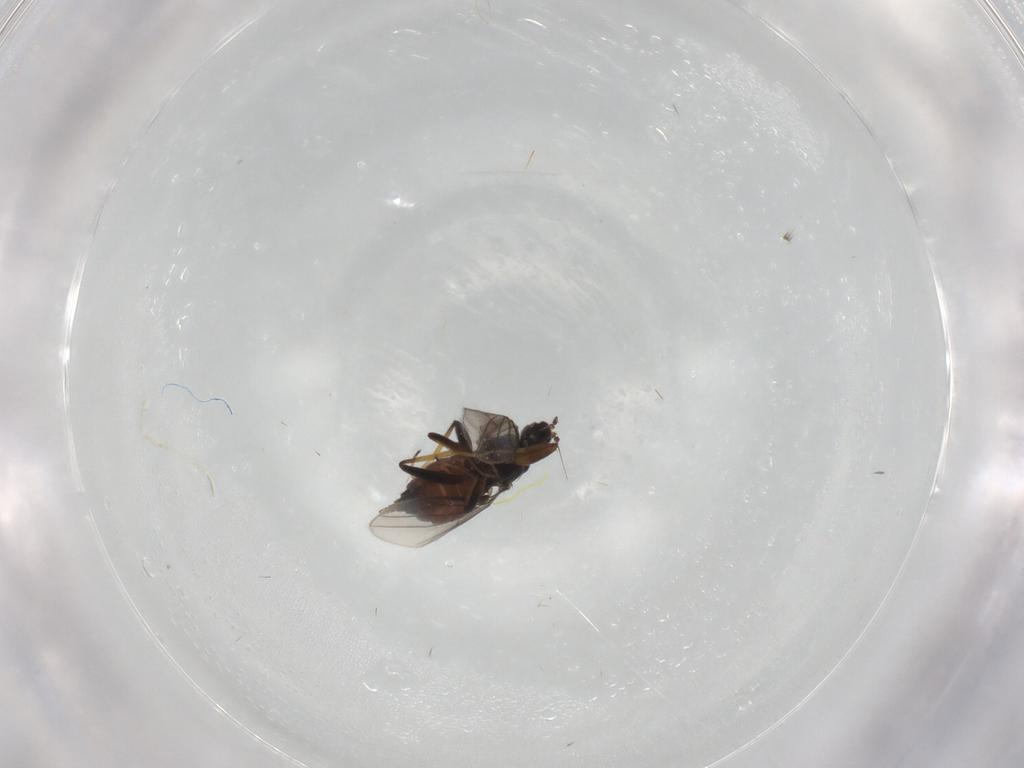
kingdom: Animalia
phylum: Arthropoda
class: Insecta
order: Diptera
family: Hybotidae
